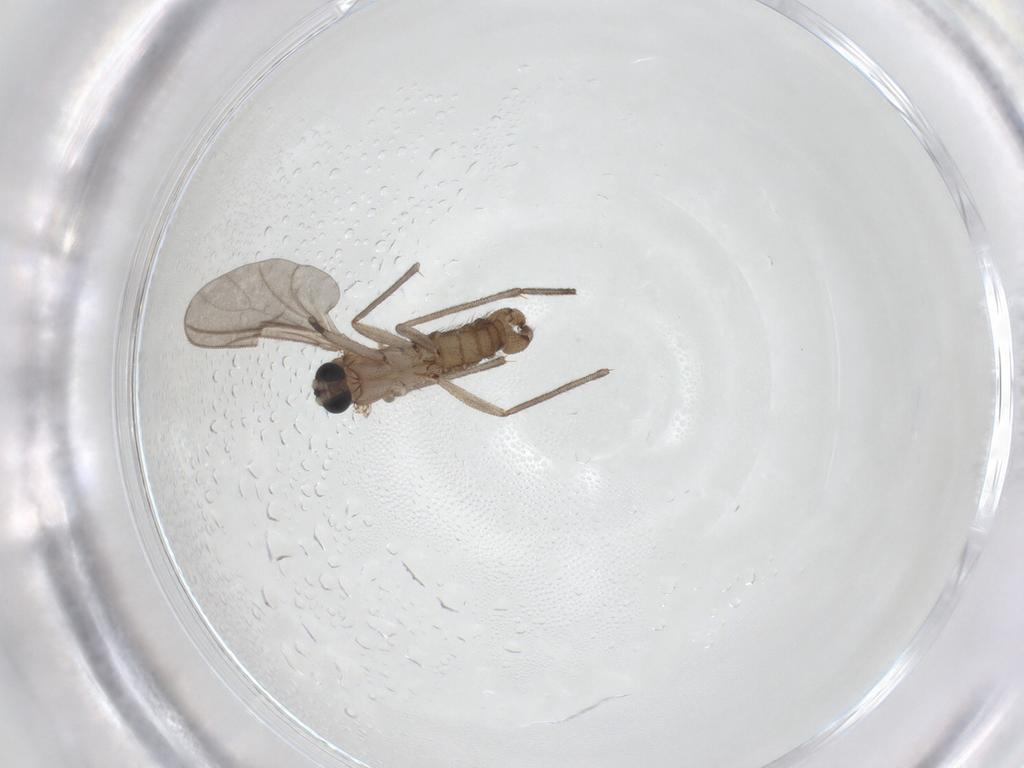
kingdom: Animalia
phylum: Arthropoda
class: Insecta
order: Diptera
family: Sciaridae
